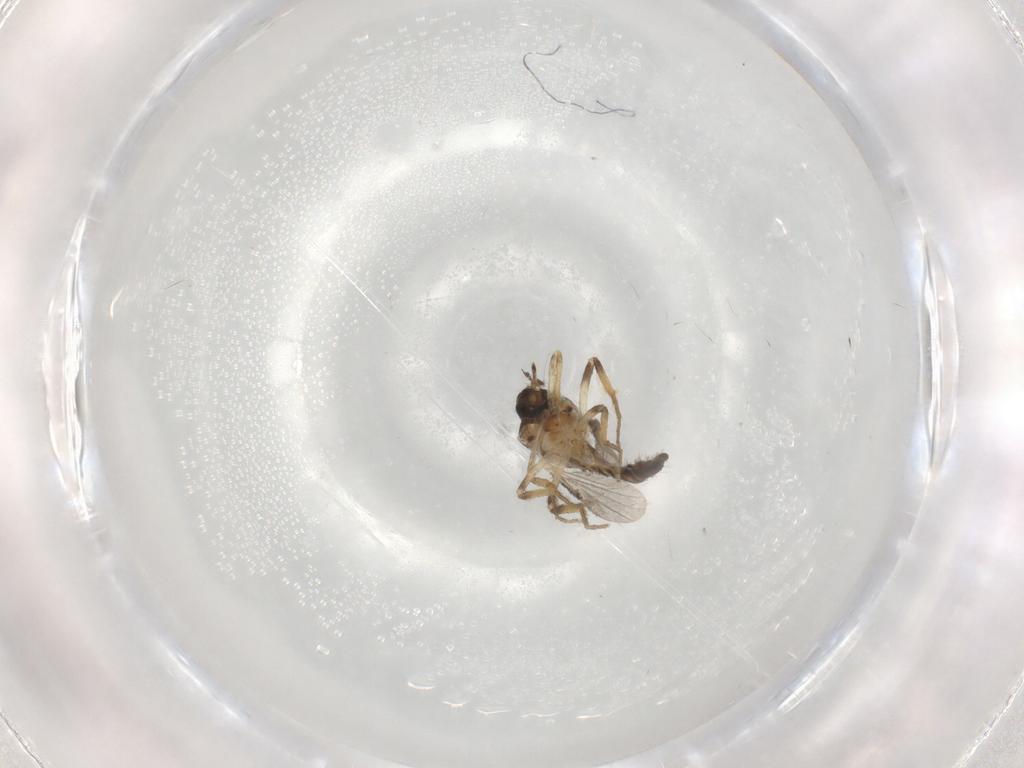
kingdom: Animalia
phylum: Arthropoda
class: Insecta
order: Diptera
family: Ceratopogonidae
